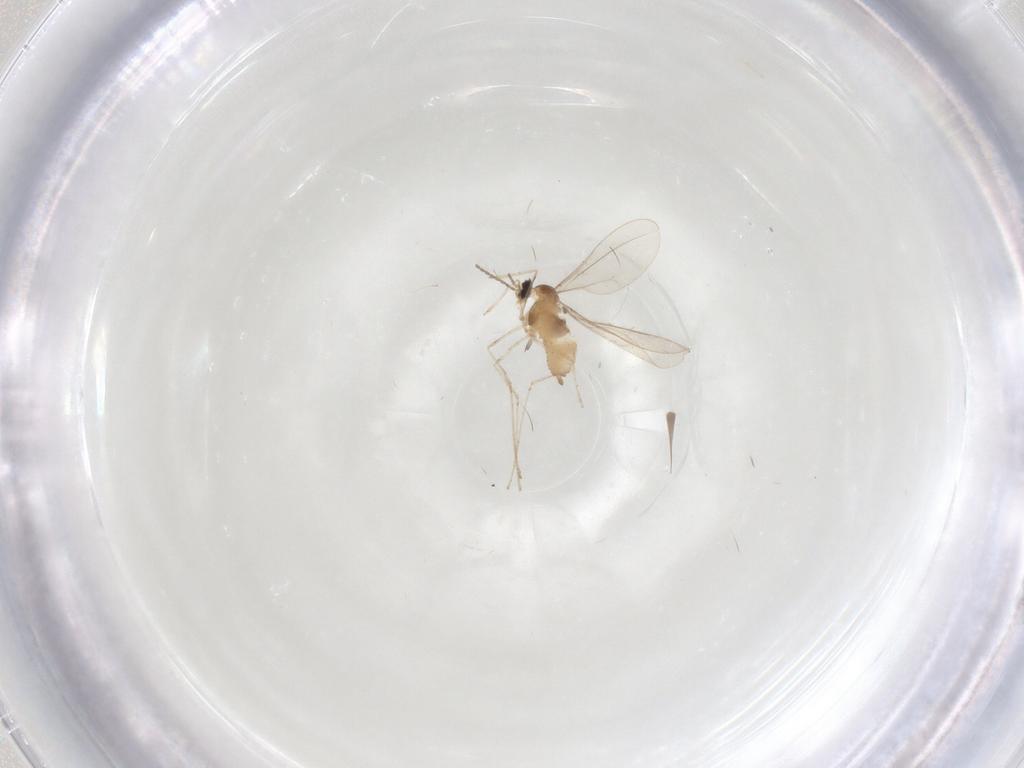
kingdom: Animalia
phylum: Arthropoda
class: Insecta
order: Diptera
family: Cecidomyiidae
